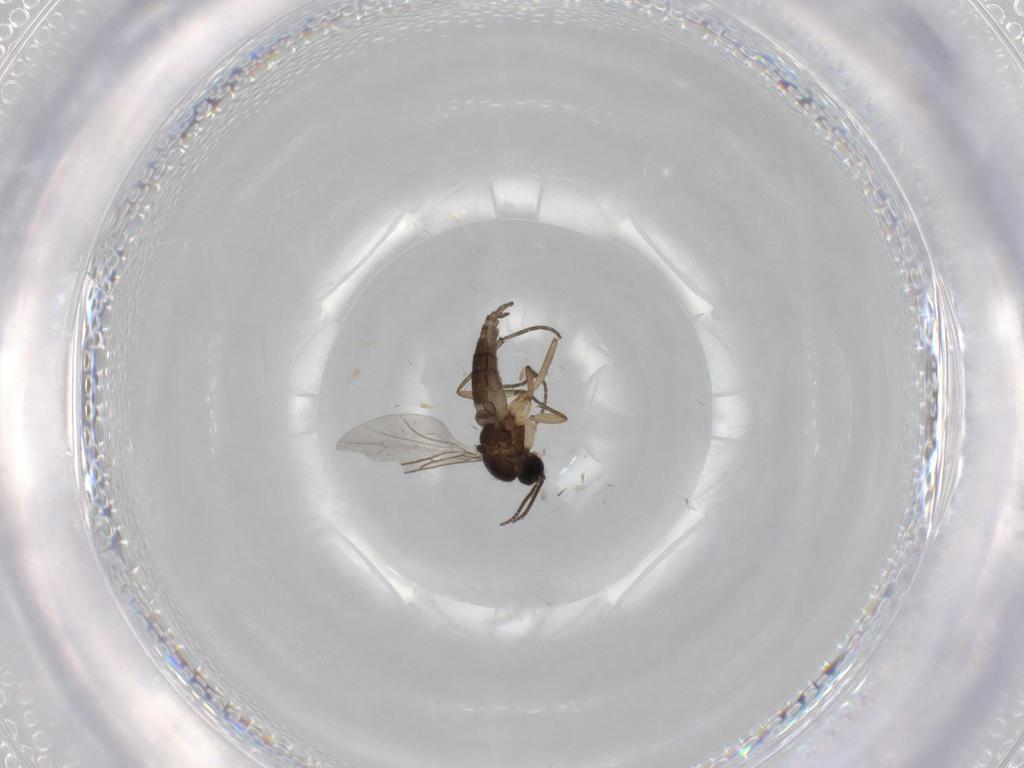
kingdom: Animalia
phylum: Arthropoda
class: Insecta
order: Diptera
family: Sciaridae
